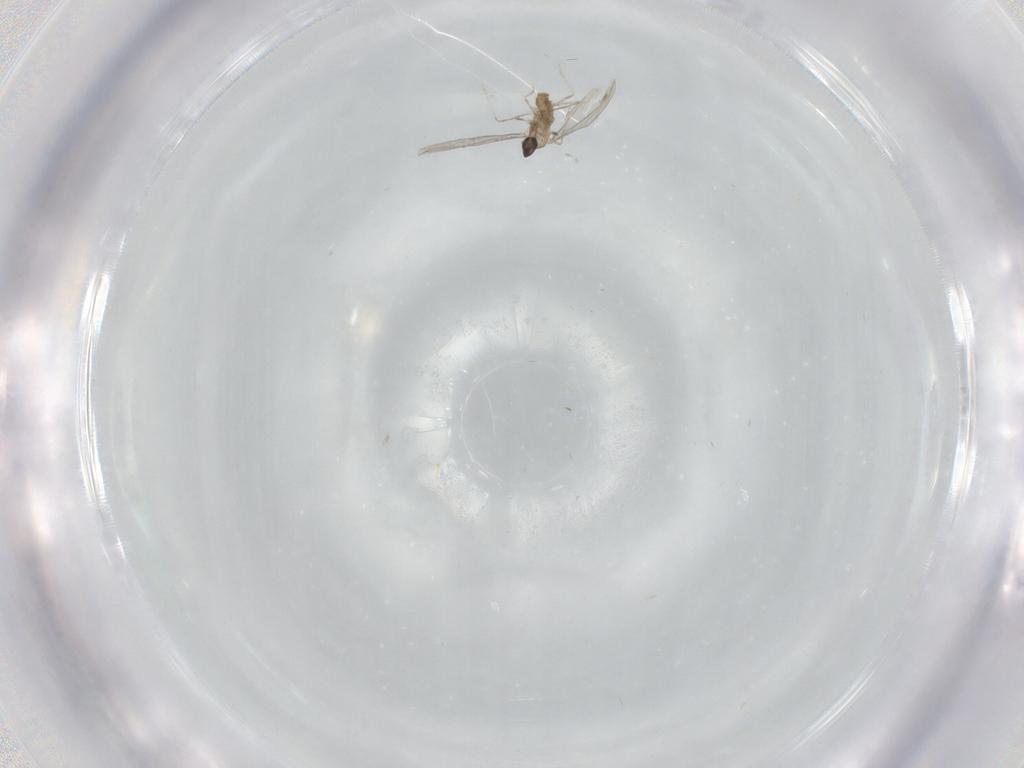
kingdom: Animalia
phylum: Arthropoda
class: Insecta
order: Diptera
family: Cecidomyiidae
